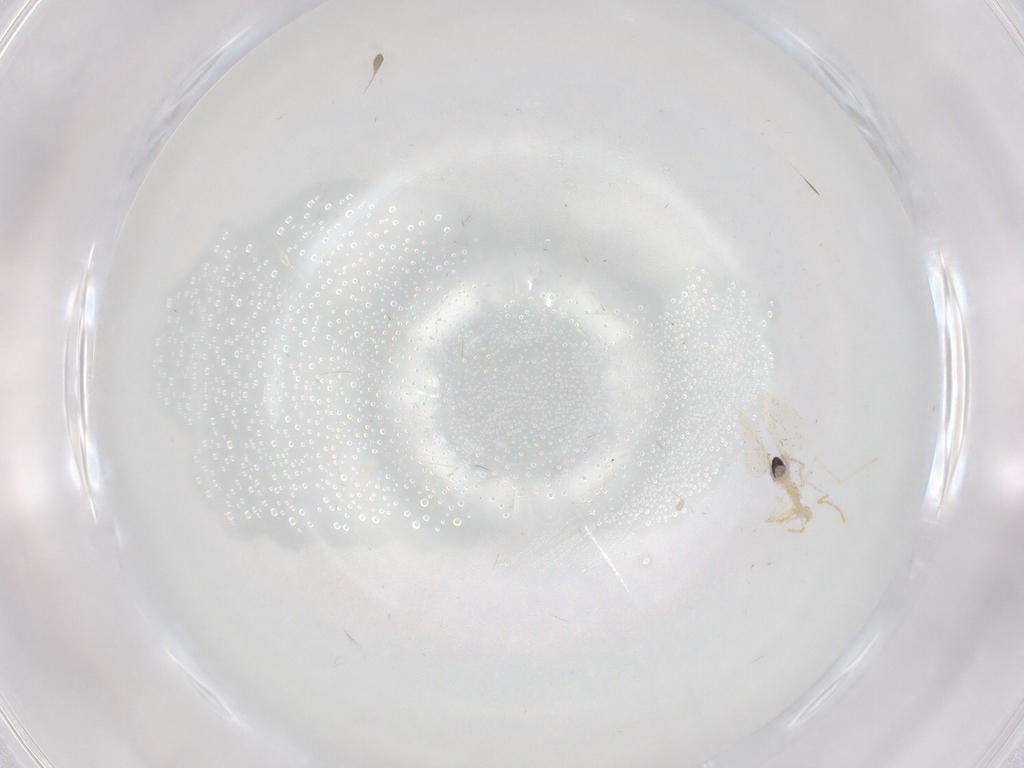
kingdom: Animalia
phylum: Arthropoda
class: Insecta
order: Diptera
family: Cecidomyiidae
